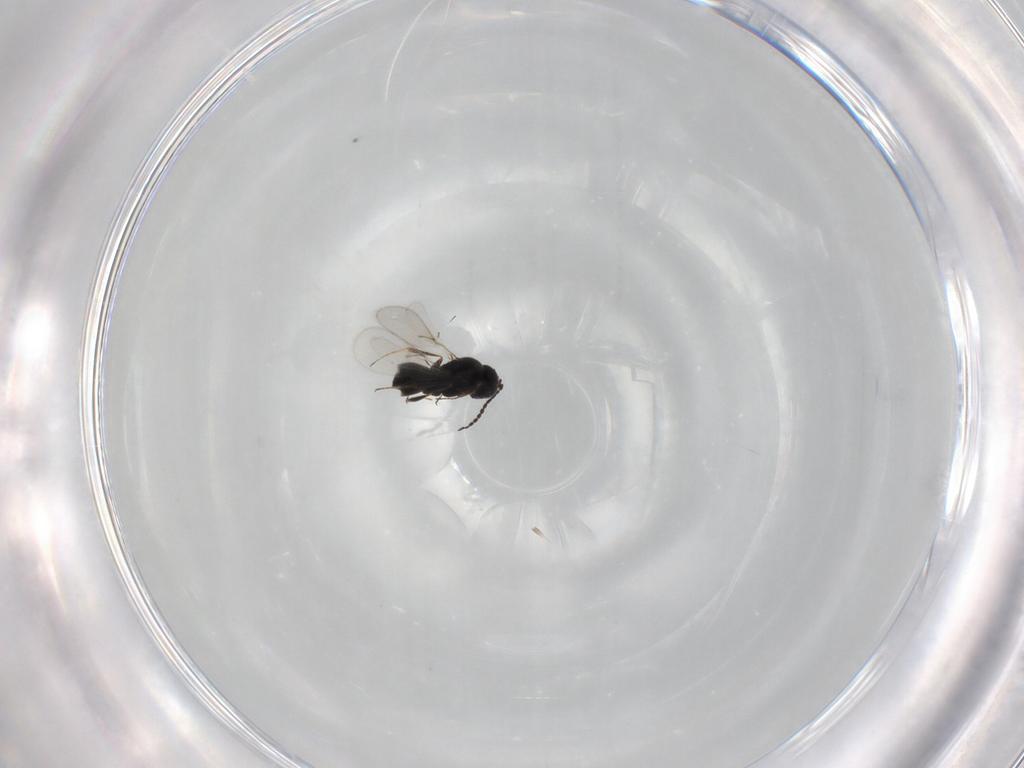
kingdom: Animalia
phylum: Arthropoda
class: Insecta
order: Hymenoptera
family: Scelionidae
